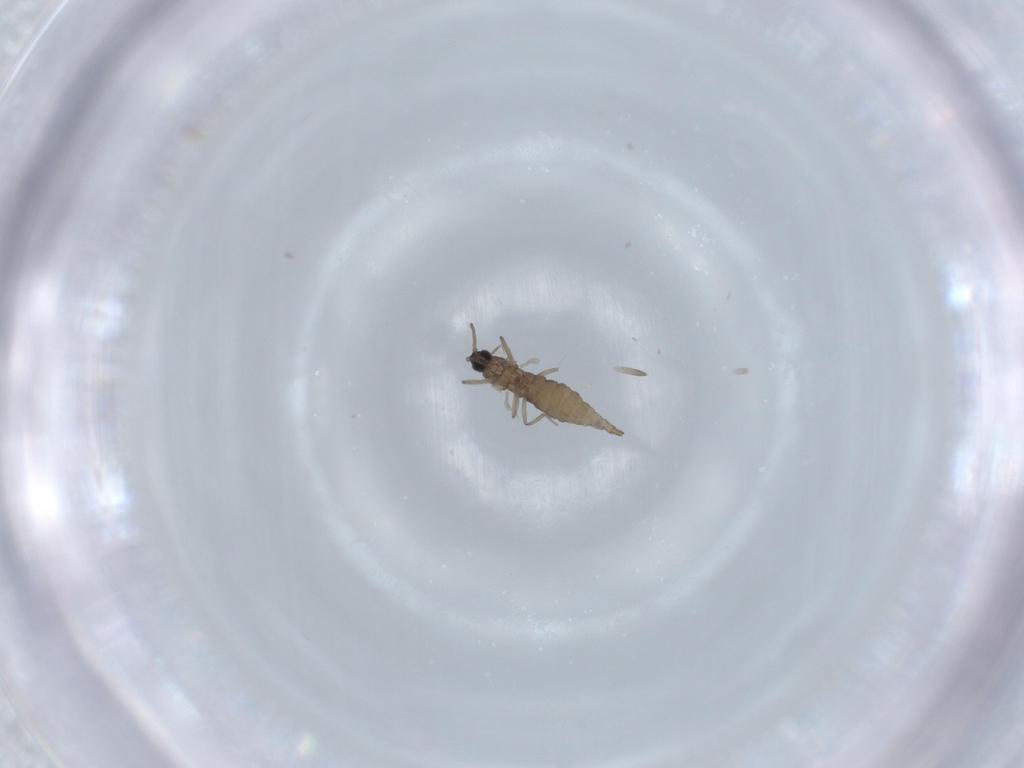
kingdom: Animalia
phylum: Arthropoda
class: Insecta
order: Diptera
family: Cecidomyiidae
